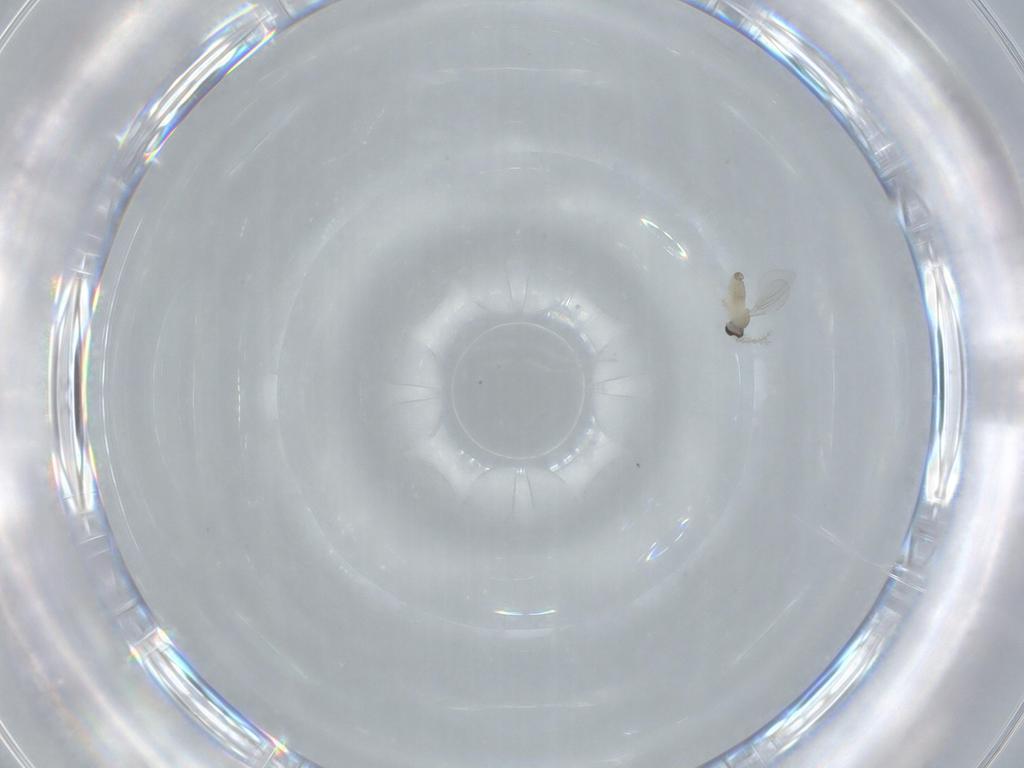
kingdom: Animalia
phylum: Arthropoda
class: Insecta
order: Diptera
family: Cecidomyiidae
